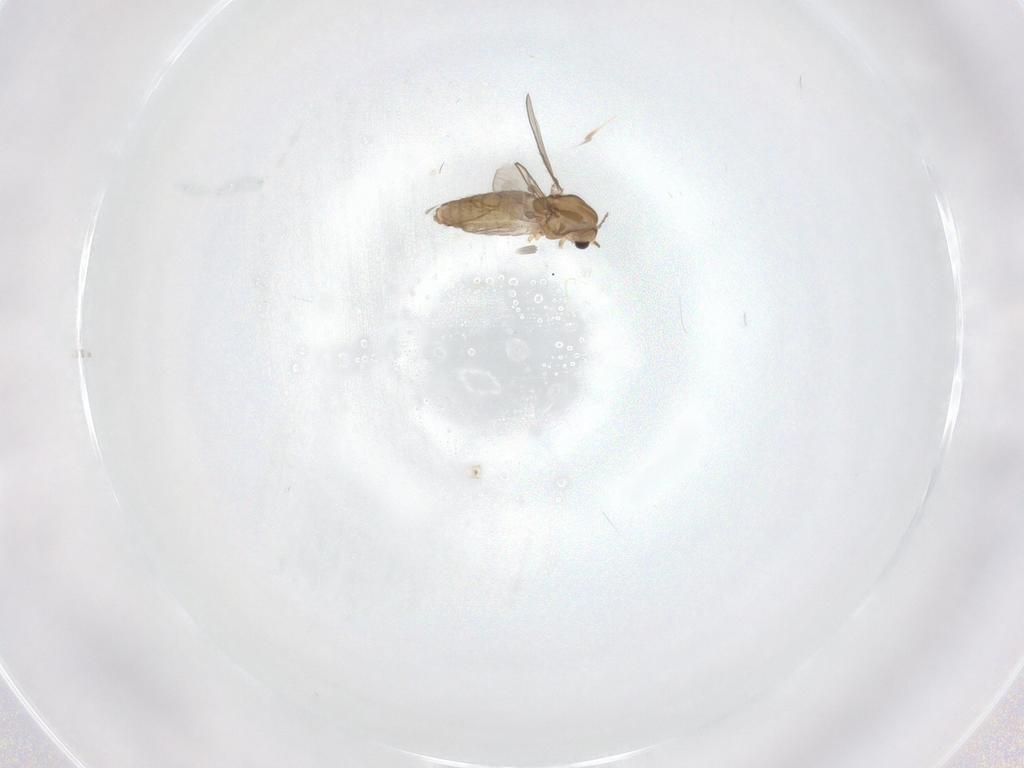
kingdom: Animalia
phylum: Arthropoda
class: Insecta
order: Diptera
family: Chironomidae
